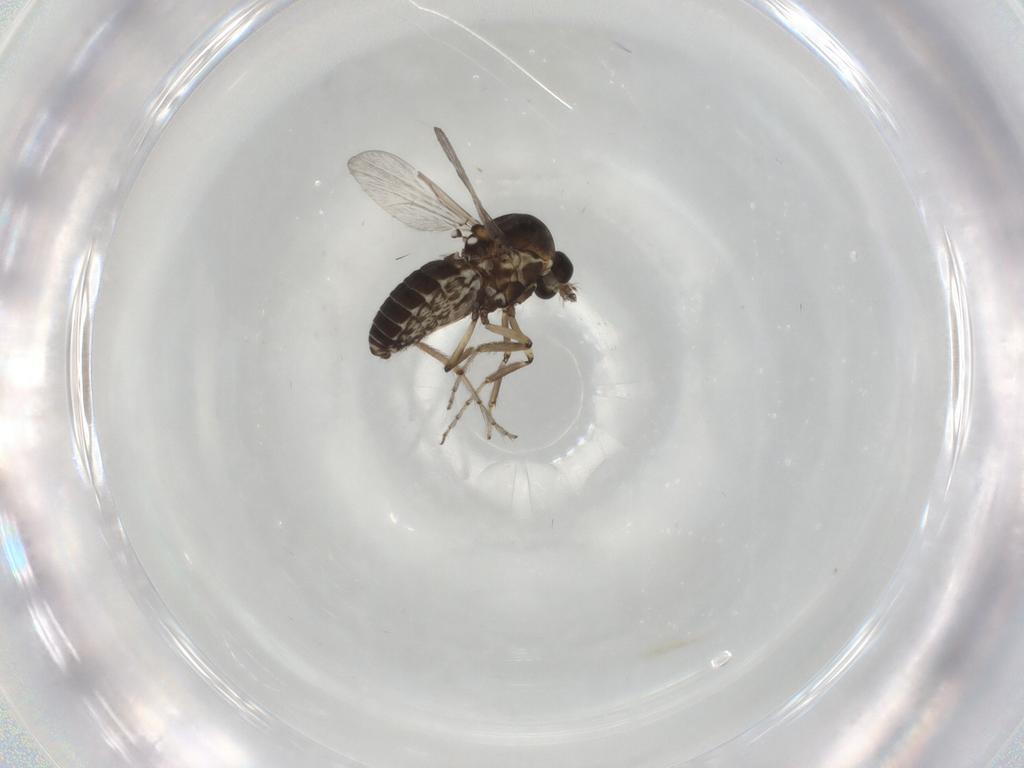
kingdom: Animalia
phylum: Arthropoda
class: Insecta
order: Diptera
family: Ceratopogonidae
